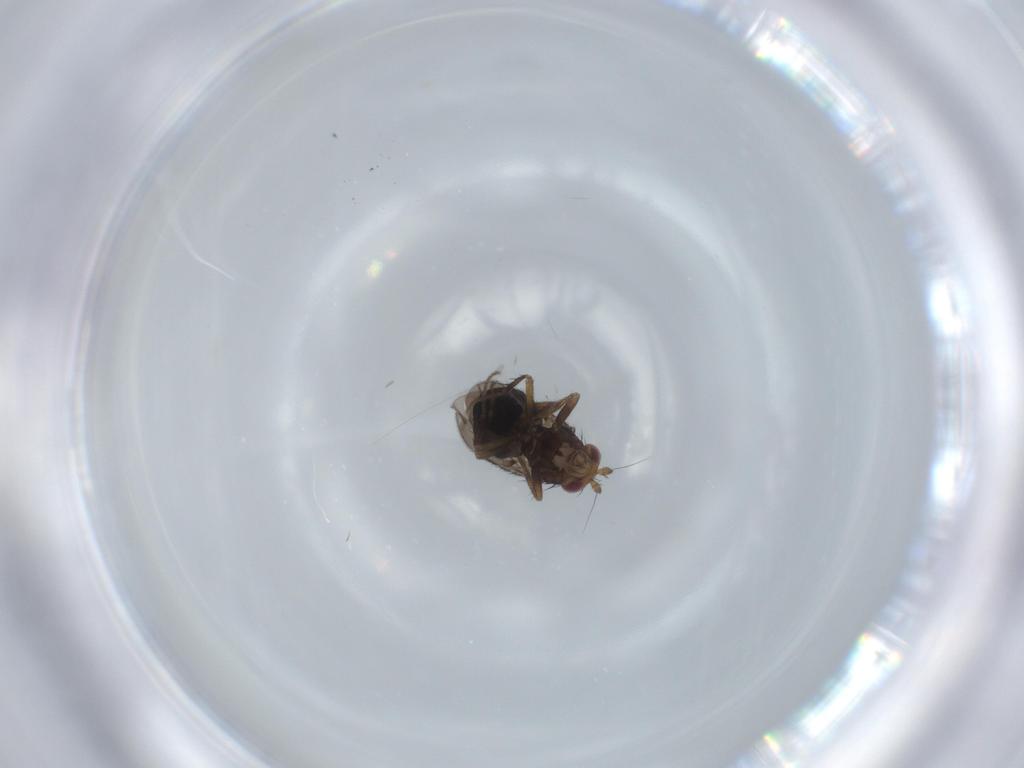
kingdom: Animalia
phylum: Arthropoda
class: Insecta
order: Diptera
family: Sphaeroceridae
